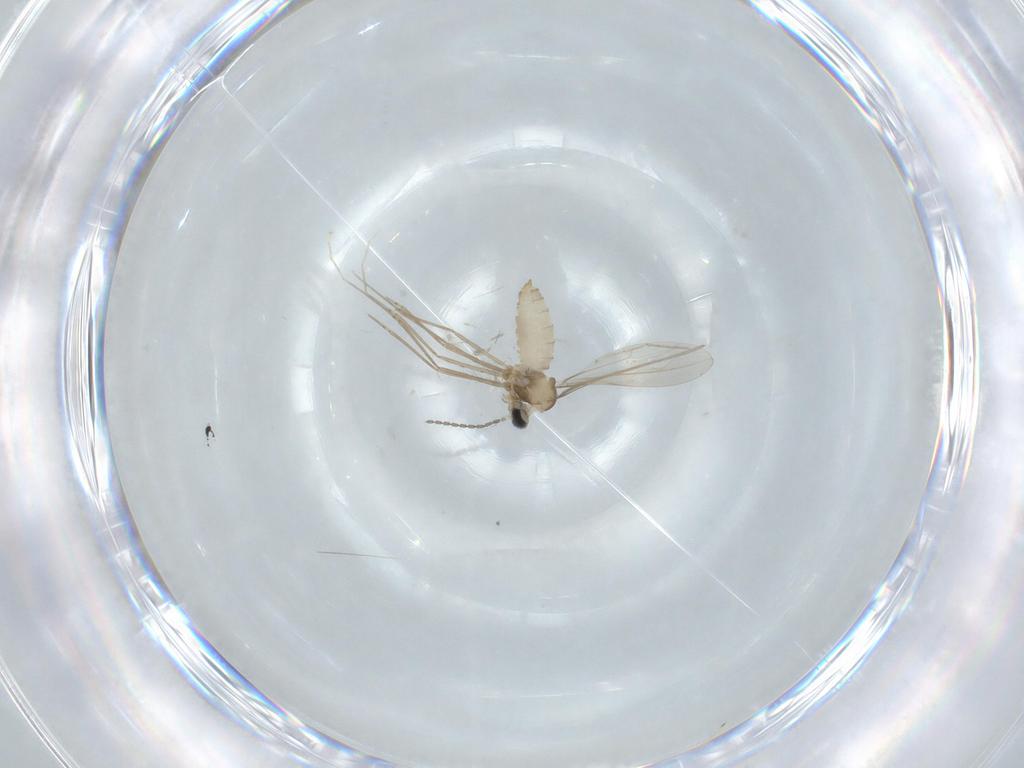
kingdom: Animalia
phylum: Arthropoda
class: Insecta
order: Diptera
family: Cecidomyiidae
